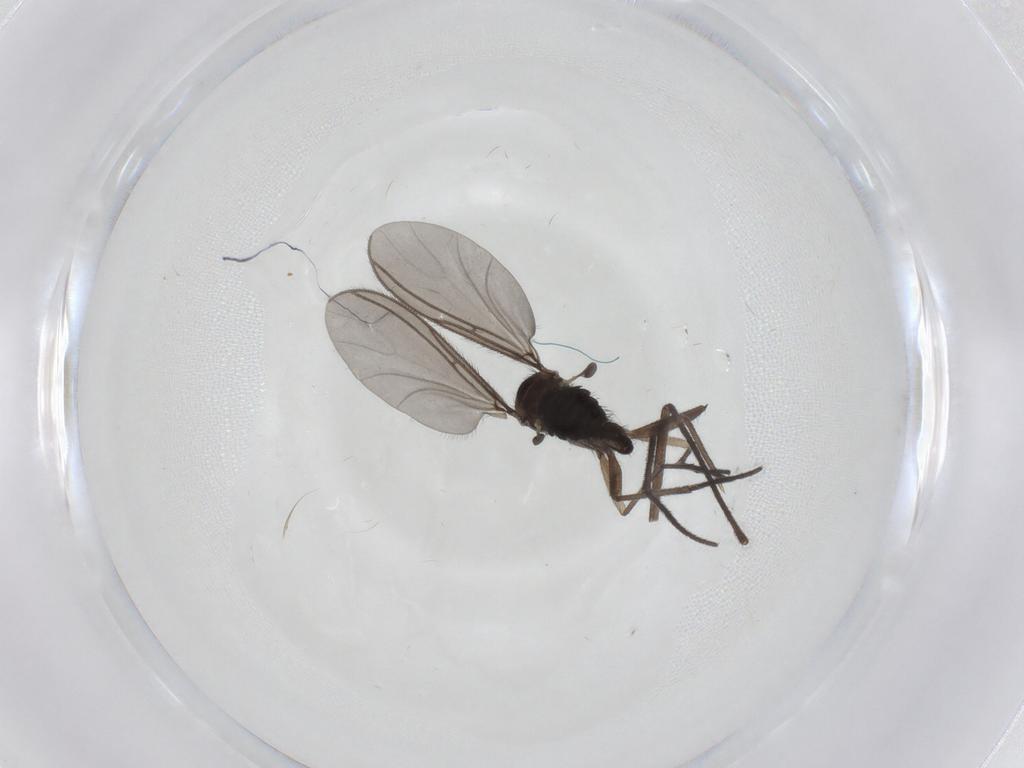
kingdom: Animalia
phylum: Arthropoda
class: Insecta
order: Diptera
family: Sciaridae
